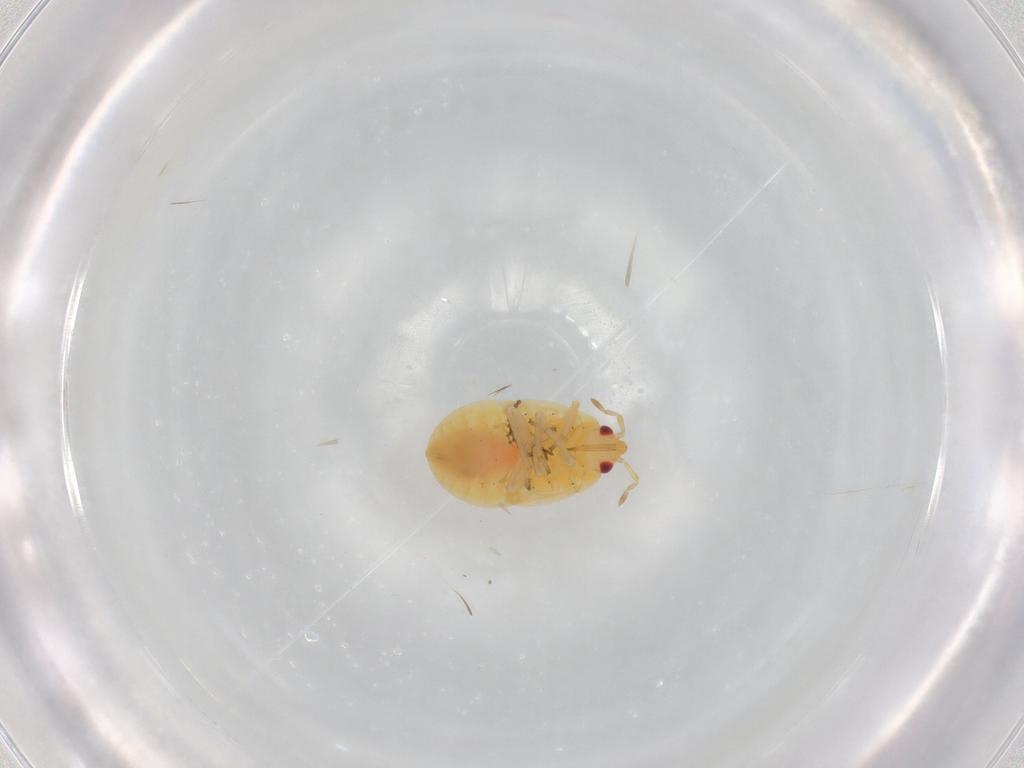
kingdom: Animalia
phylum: Arthropoda
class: Insecta
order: Hemiptera
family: Anthocoridae
